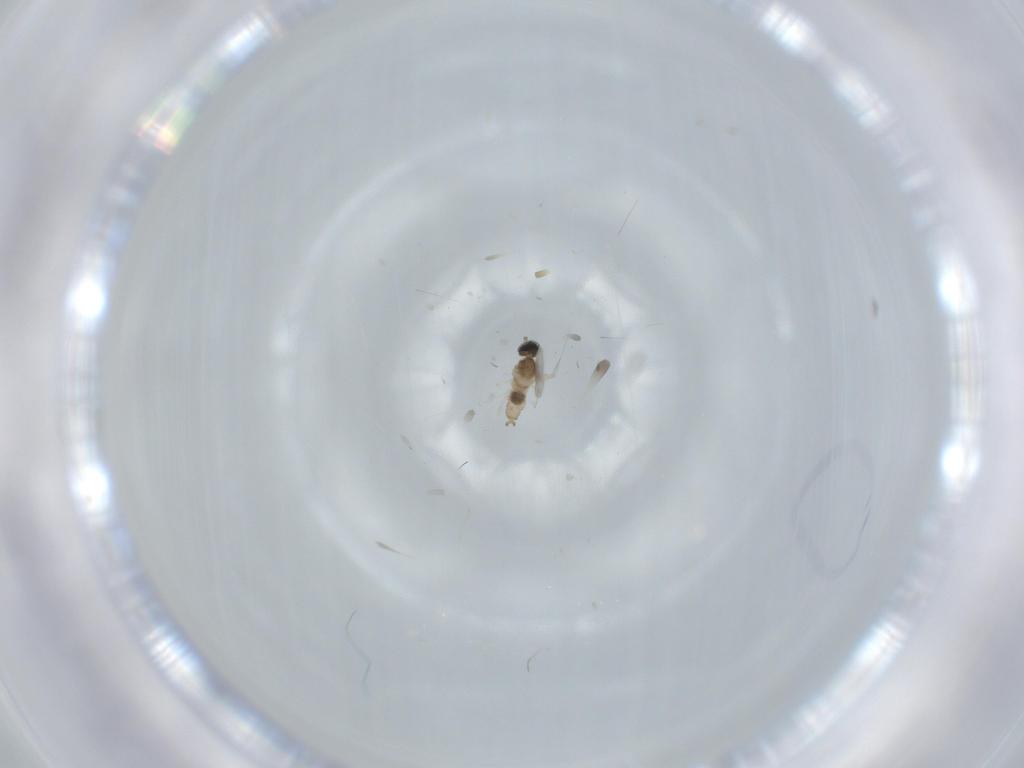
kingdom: Animalia
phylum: Arthropoda
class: Insecta
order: Diptera
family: Cecidomyiidae
